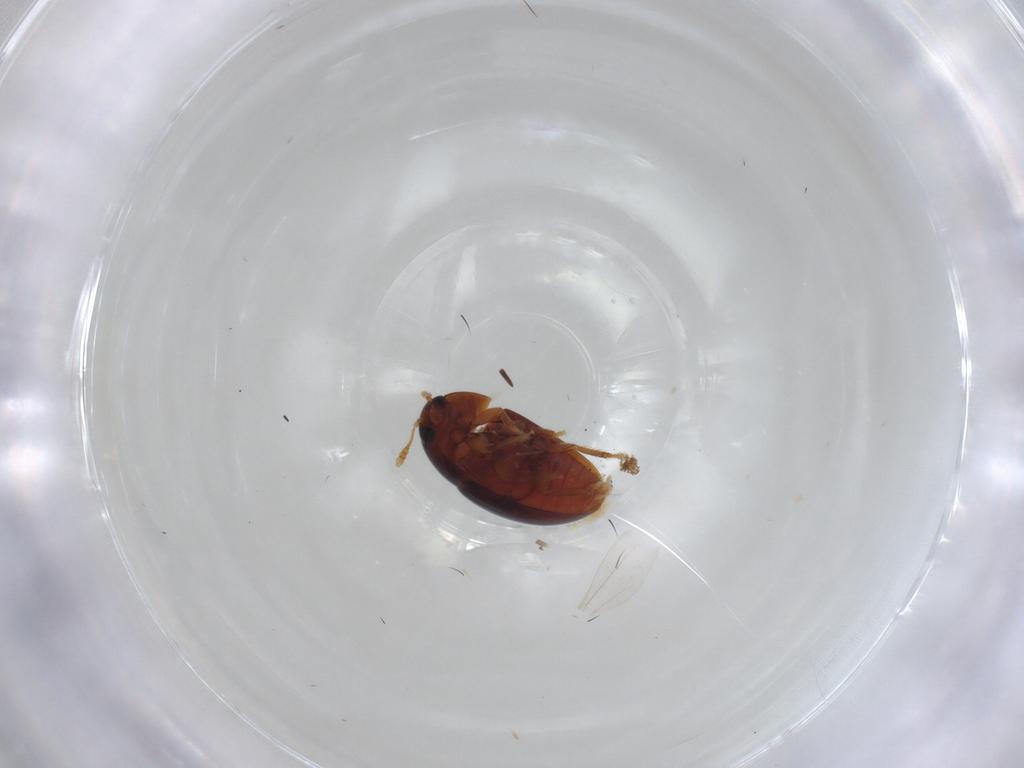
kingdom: Animalia
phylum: Arthropoda
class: Insecta
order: Coleoptera
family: Phalacridae
